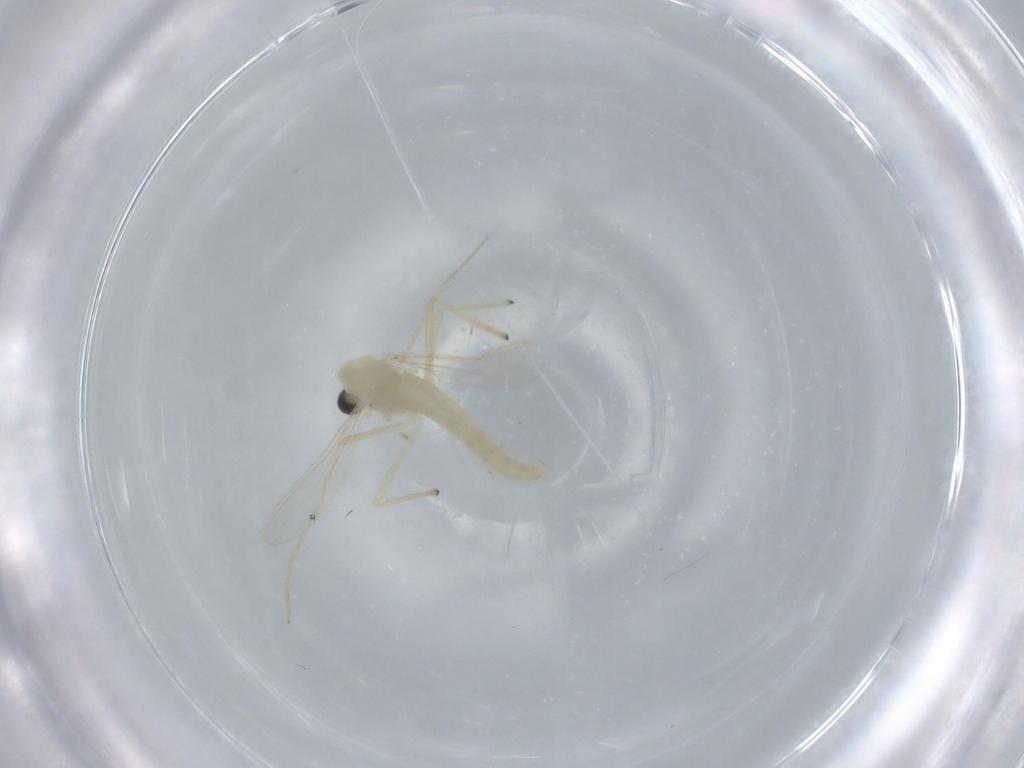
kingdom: Animalia
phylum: Arthropoda
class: Insecta
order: Diptera
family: Chironomidae
